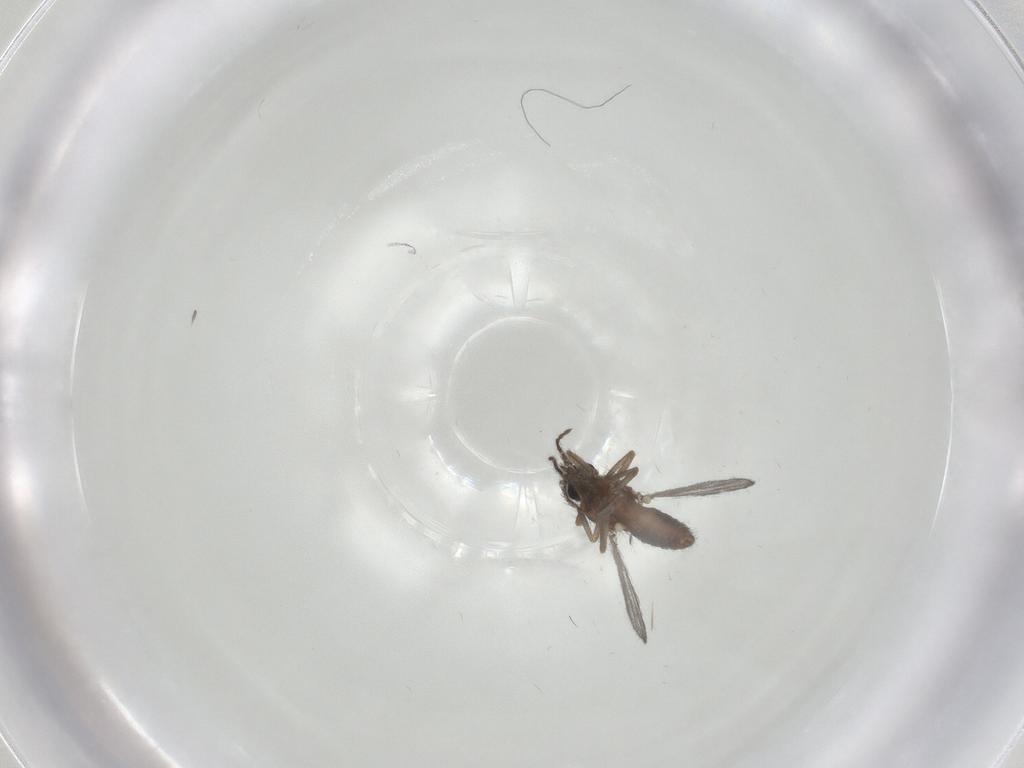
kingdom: Animalia
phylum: Arthropoda
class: Insecta
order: Diptera
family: Ceratopogonidae
